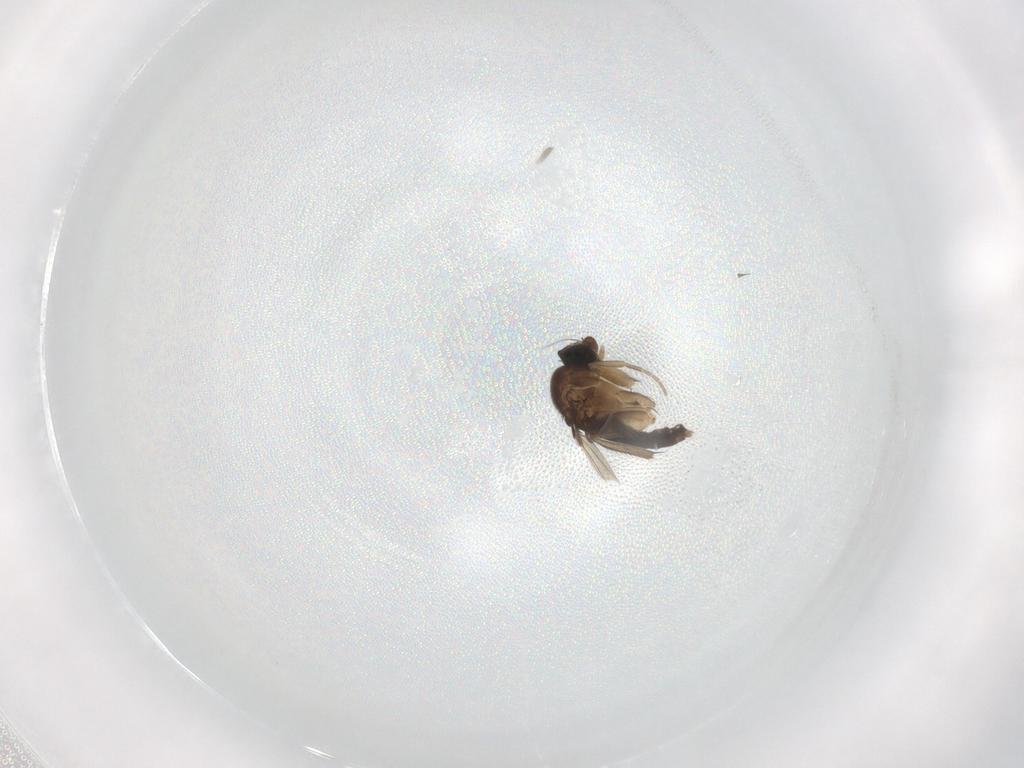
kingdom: Animalia
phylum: Arthropoda
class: Insecta
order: Diptera
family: Phoridae
